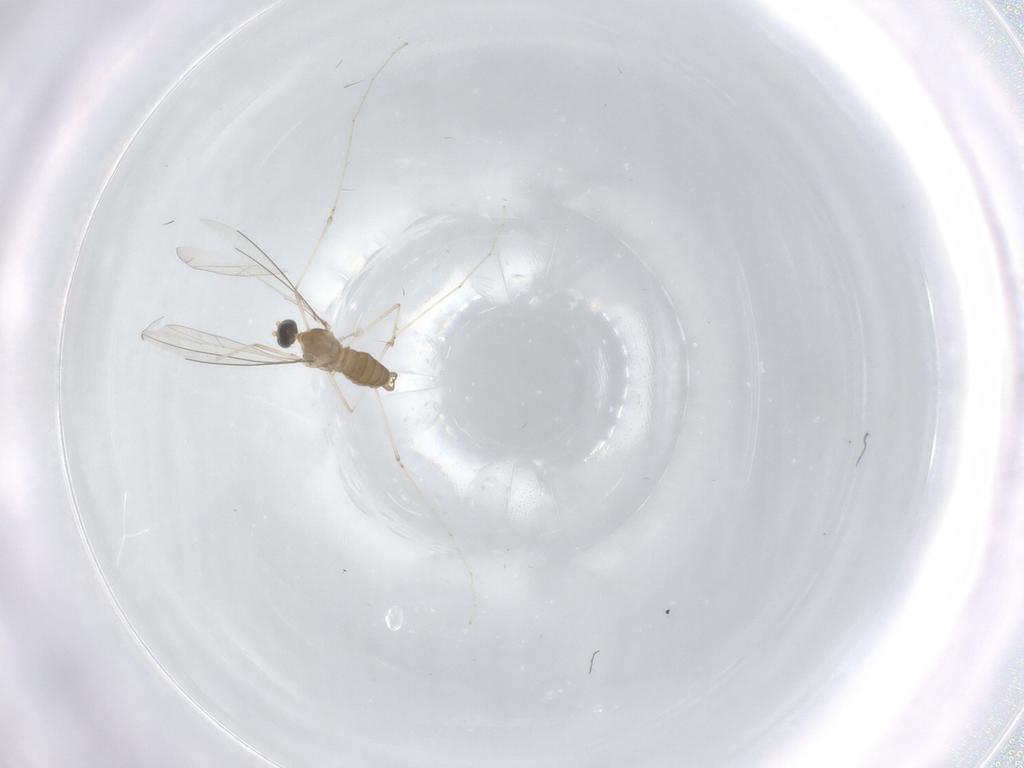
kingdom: Animalia
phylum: Arthropoda
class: Insecta
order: Diptera
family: Cecidomyiidae
